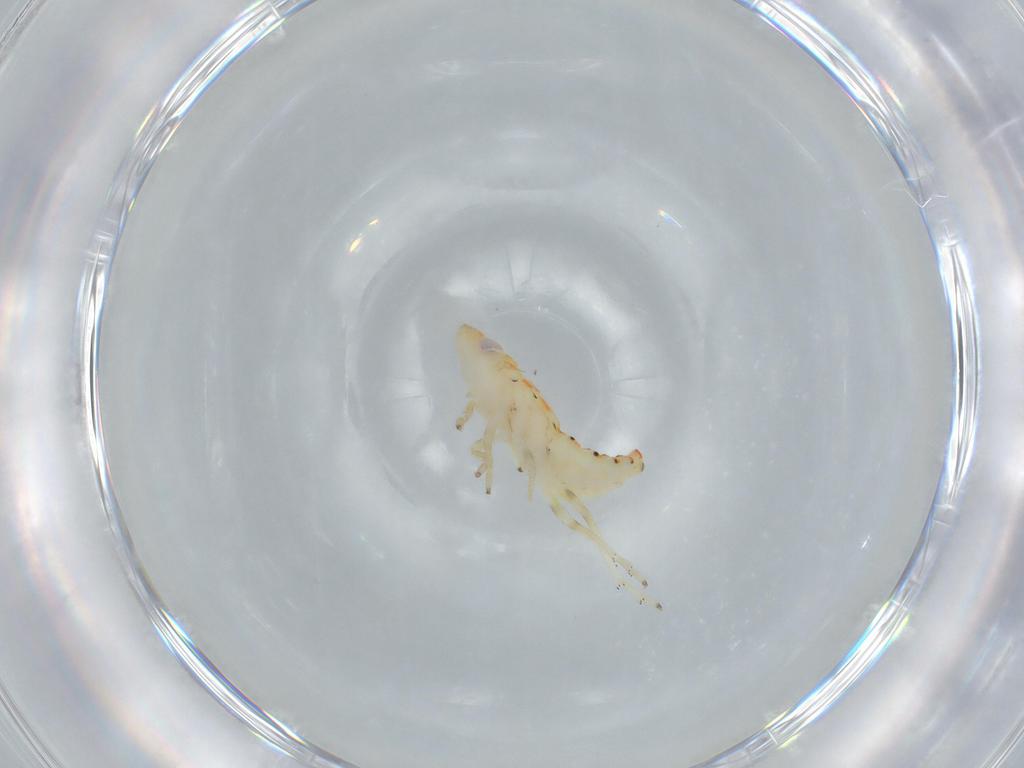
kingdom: Animalia
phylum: Arthropoda
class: Insecta
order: Hemiptera
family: Tropiduchidae
